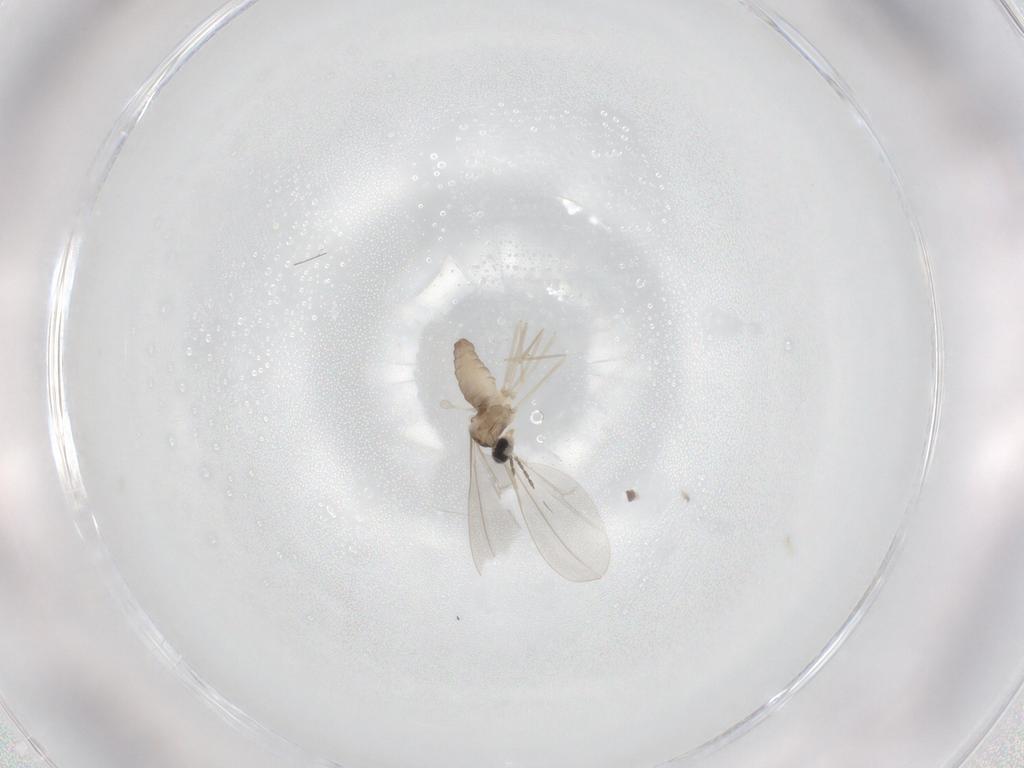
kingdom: Animalia
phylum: Arthropoda
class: Insecta
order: Diptera
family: Cecidomyiidae
